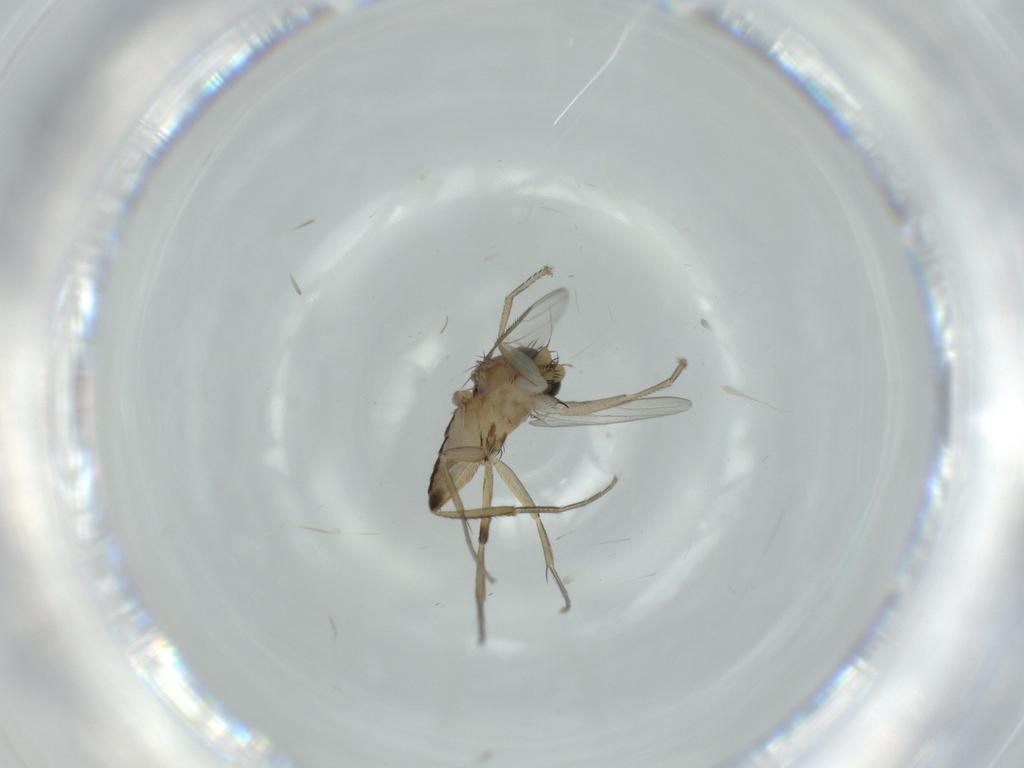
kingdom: Animalia
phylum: Arthropoda
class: Insecta
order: Diptera
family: Phoridae
